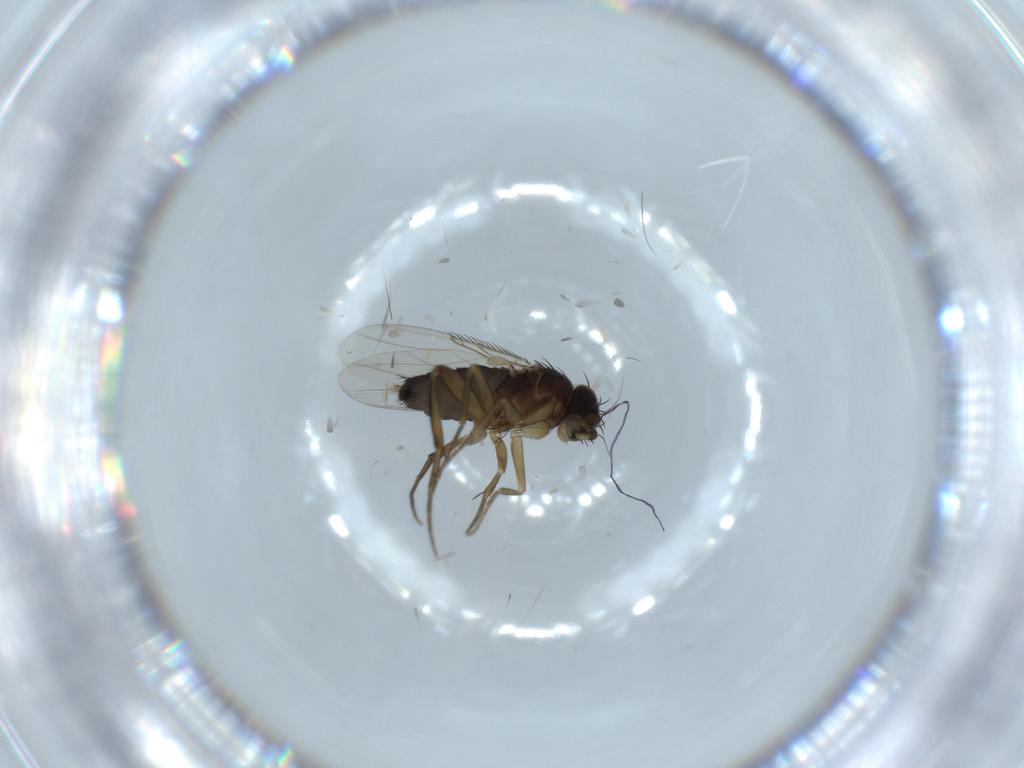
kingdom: Animalia
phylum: Arthropoda
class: Insecta
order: Diptera
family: Phoridae
